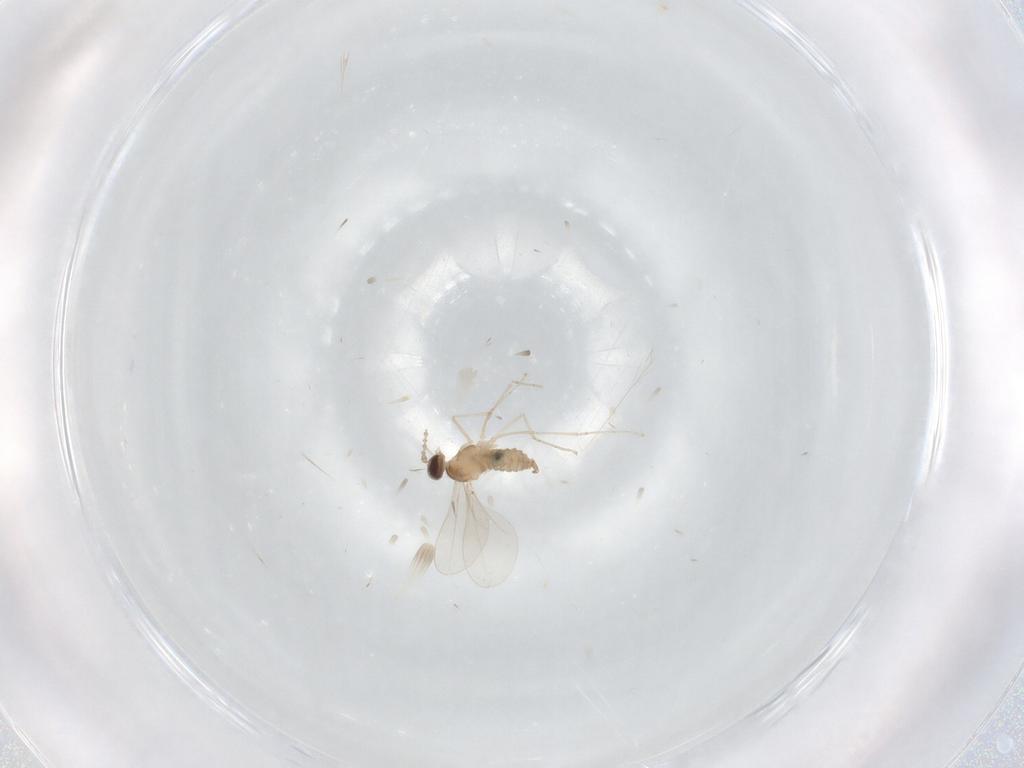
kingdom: Animalia
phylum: Arthropoda
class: Insecta
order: Diptera
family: Cecidomyiidae
